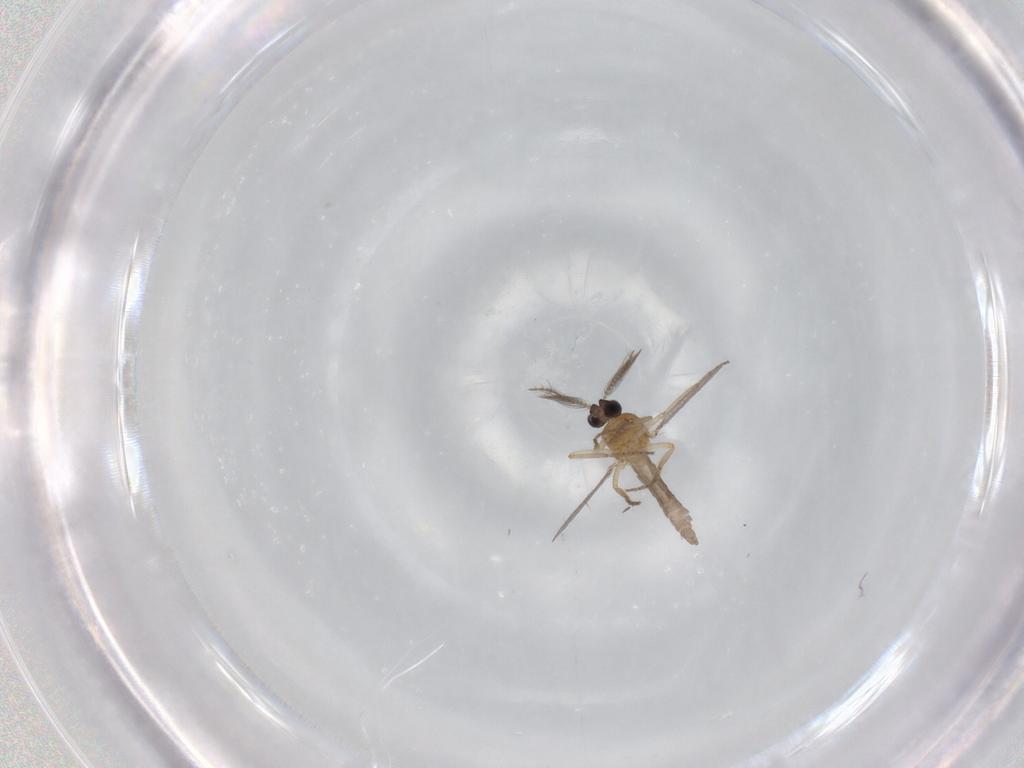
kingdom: Animalia
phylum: Arthropoda
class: Insecta
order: Diptera
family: Ceratopogonidae
